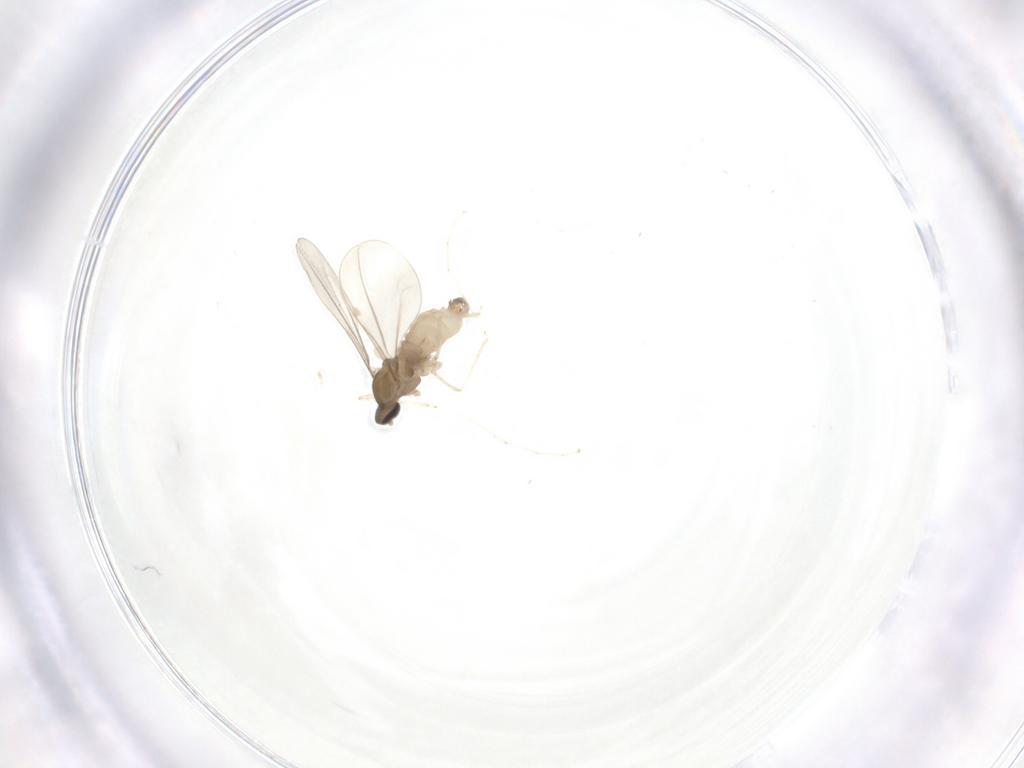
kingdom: Animalia
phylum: Arthropoda
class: Insecta
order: Diptera
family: Cecidomyiidae
